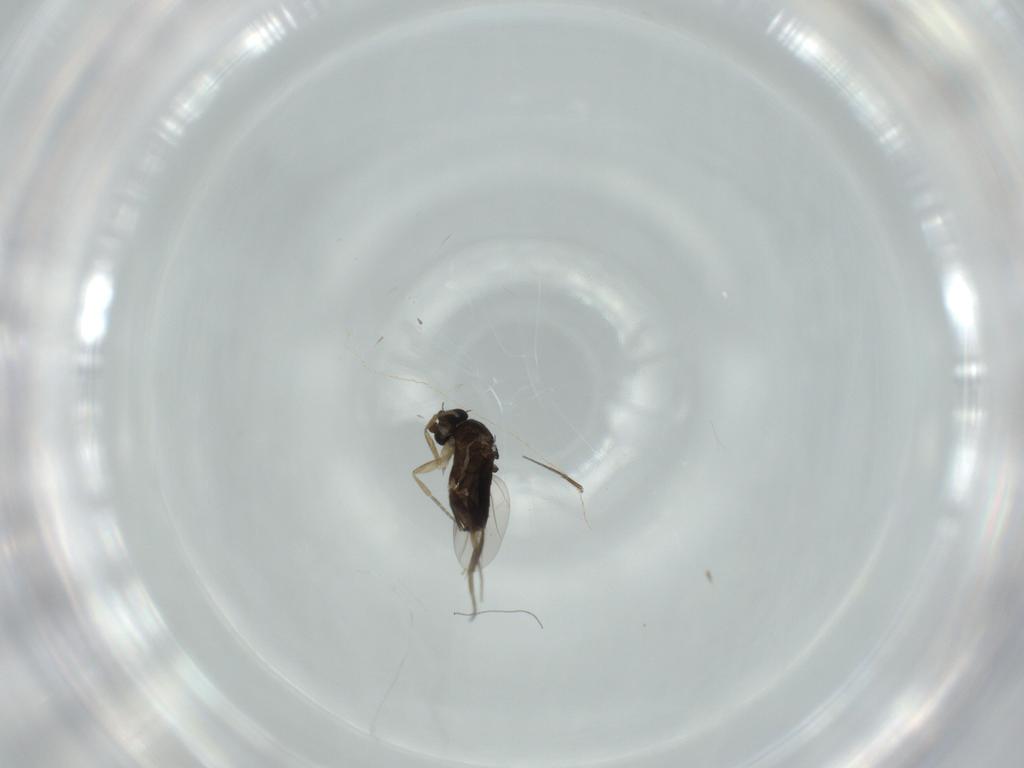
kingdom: Animalia
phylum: Arthropoda
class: Insecta
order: Diptera
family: Phoridae
